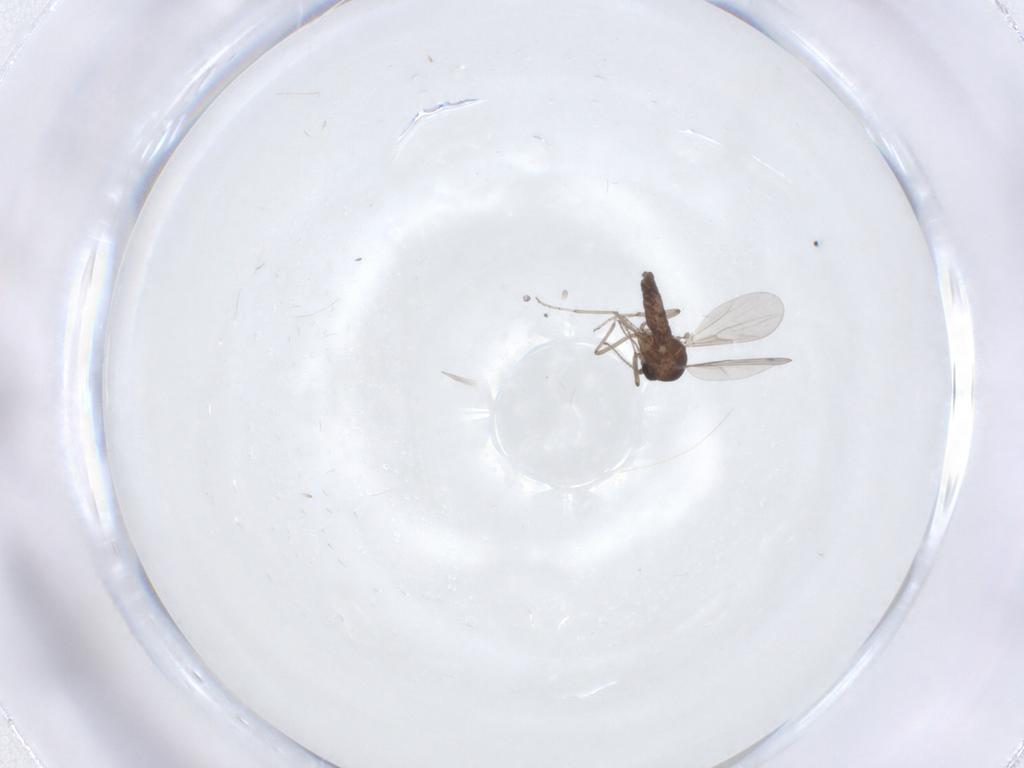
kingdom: Animalia
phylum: Arthropoda
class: Insecta
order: Diptera
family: Ceratopogonidae
